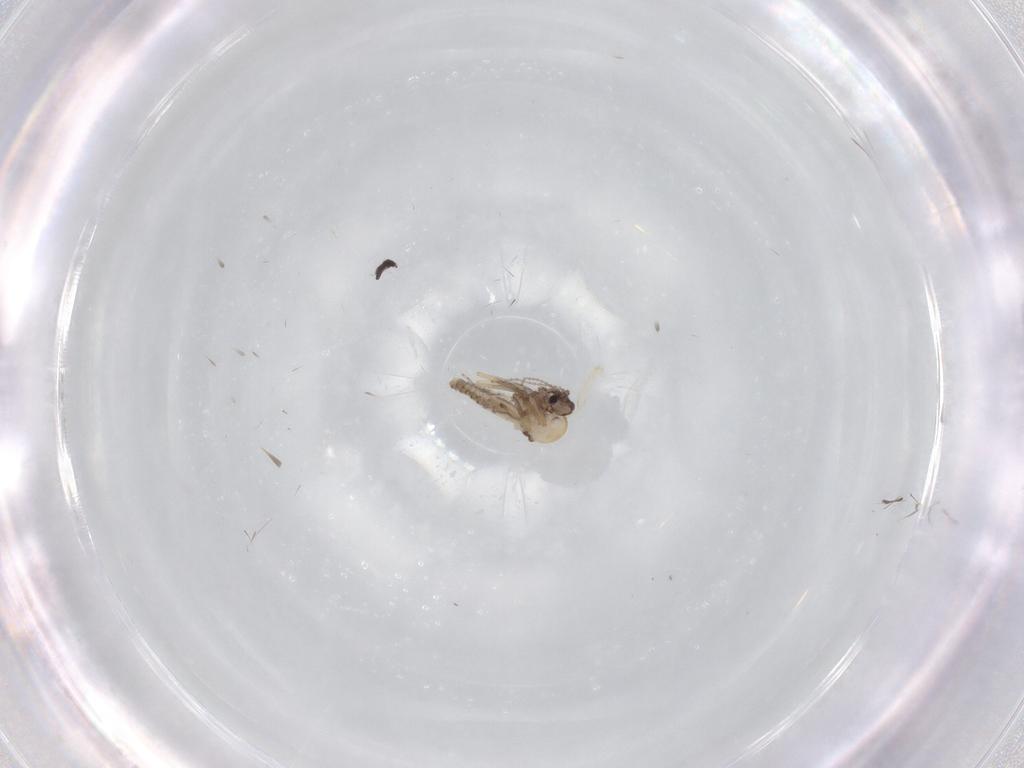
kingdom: Animalia
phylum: Arthropoda
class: Insecta
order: Diptera
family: Ceratopogonidae
